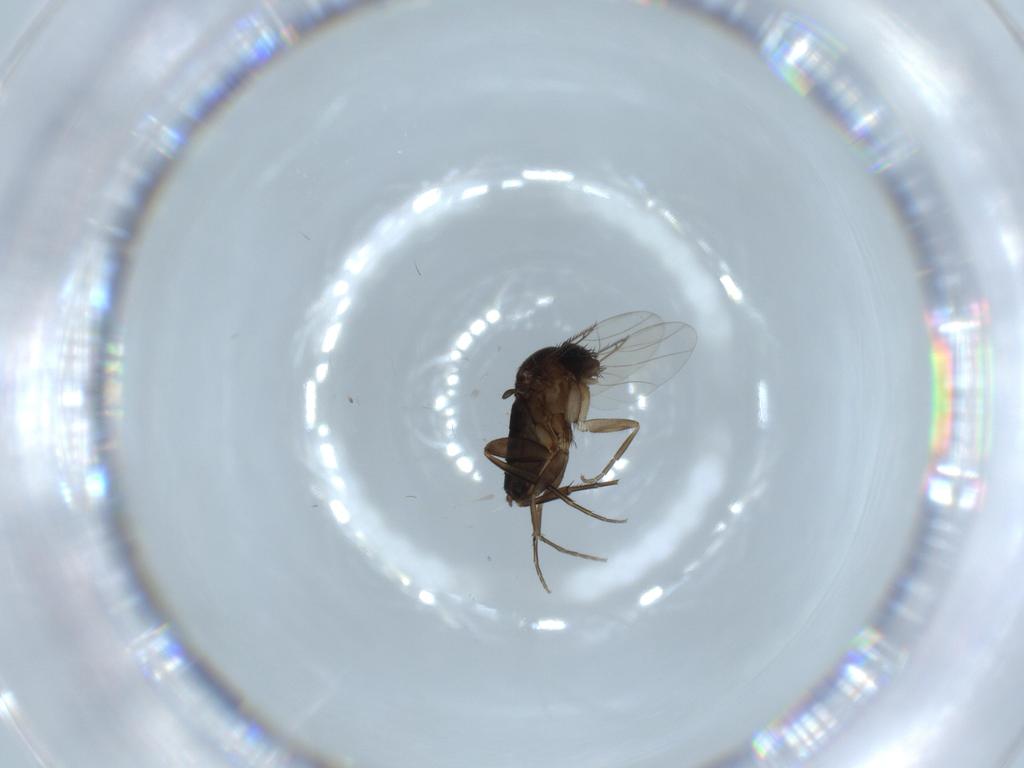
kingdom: Animalia
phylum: Arthropoda
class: Insecta
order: Diptera
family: Phoridae
